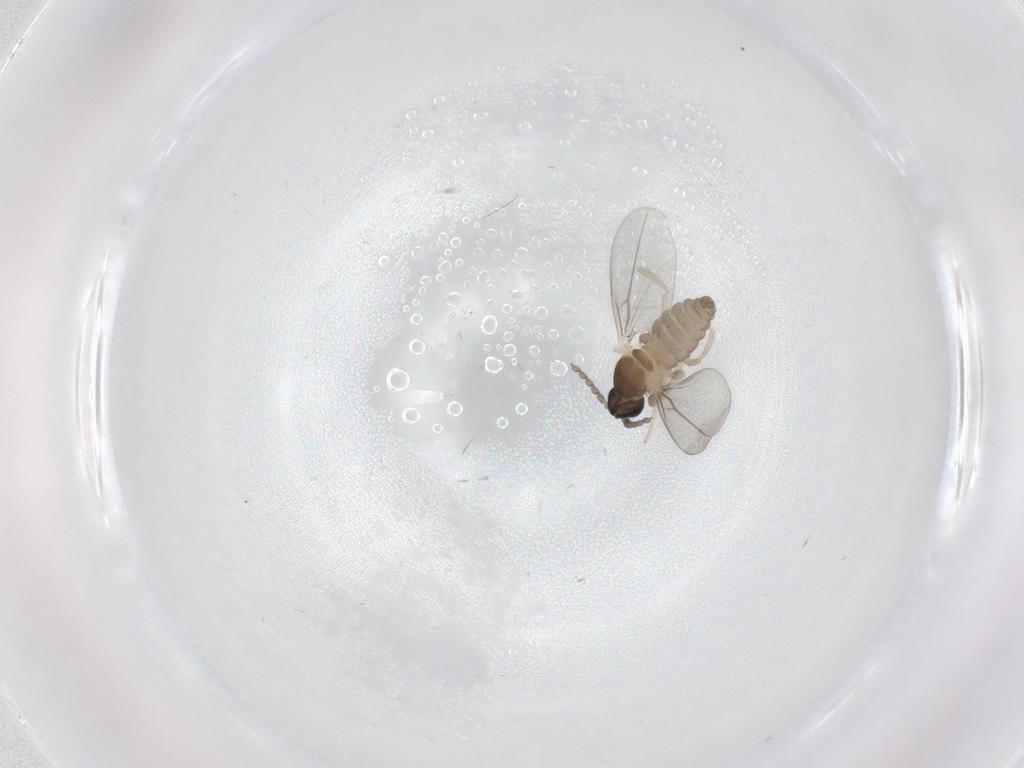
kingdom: Animalia
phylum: Arthropoda
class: Insecta
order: Diptera
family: Cecidomyiidae
